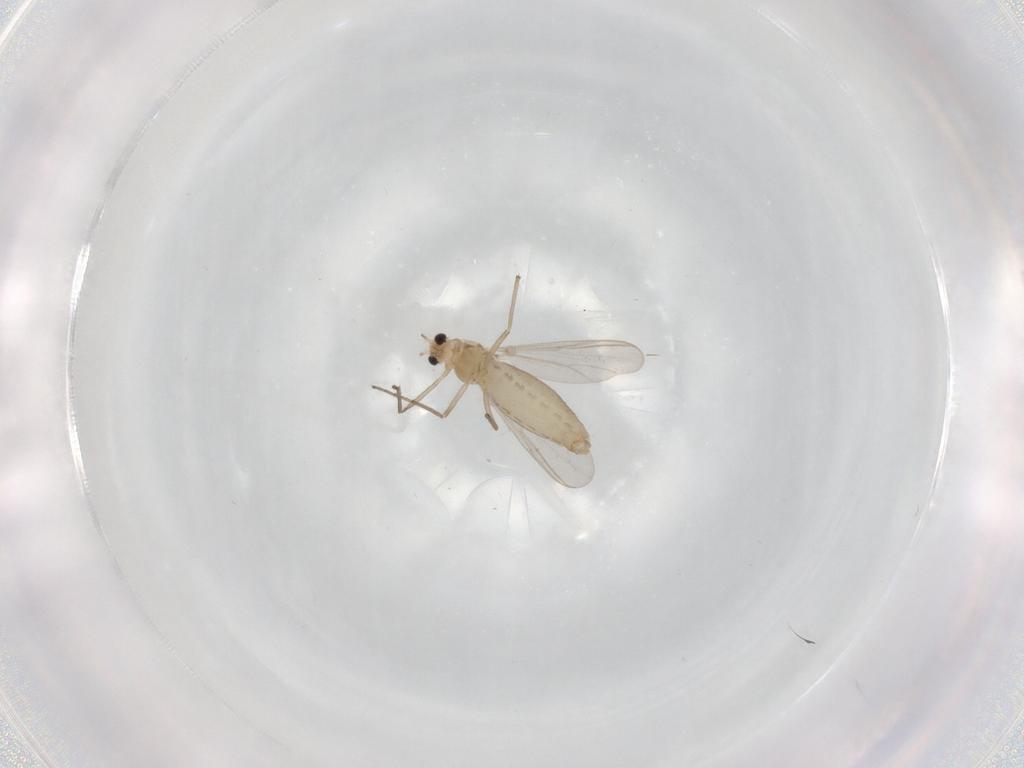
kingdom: Animalia
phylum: Arthropoda
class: Insecta
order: Diptera
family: Chironomidae
